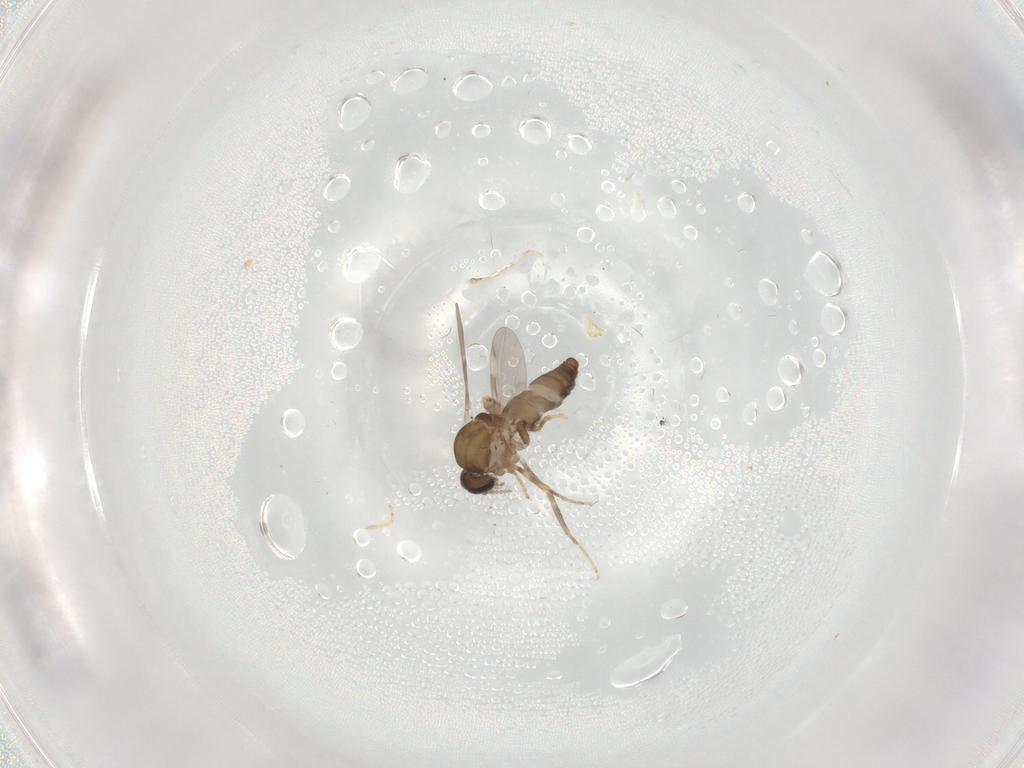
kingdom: Animalia
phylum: Arthropoda
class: Insecta
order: Diptera
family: Ceratopogonidae
